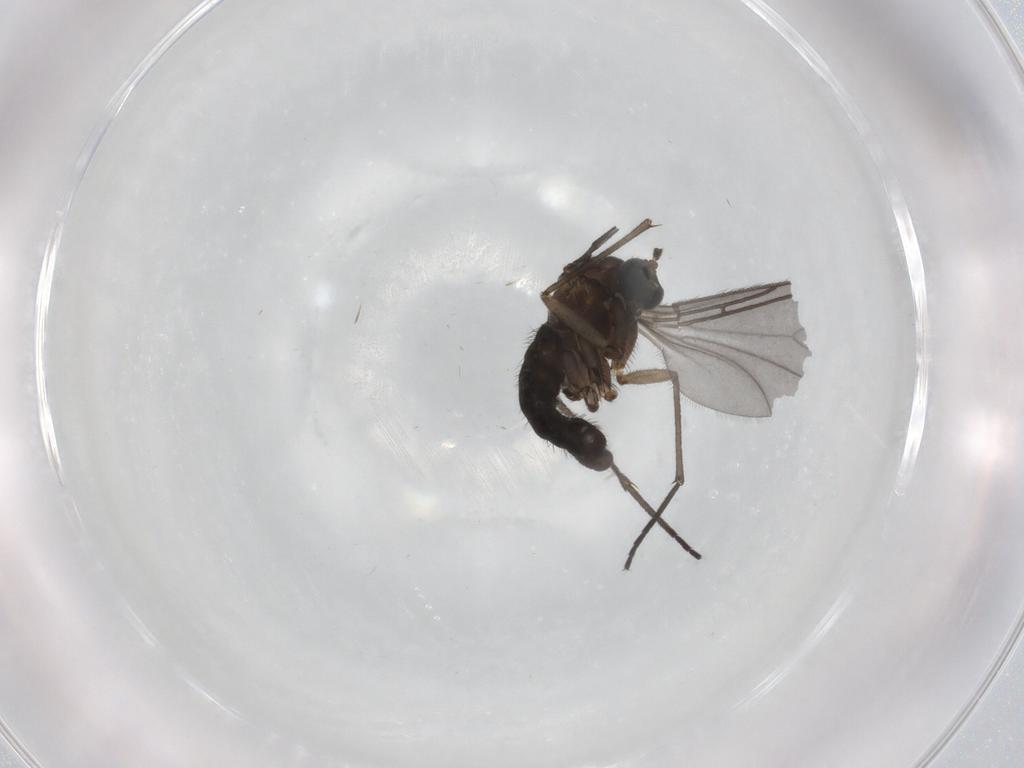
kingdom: Animalia
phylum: Arthropoda
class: Insecta
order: Diptera
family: Sciaridae
